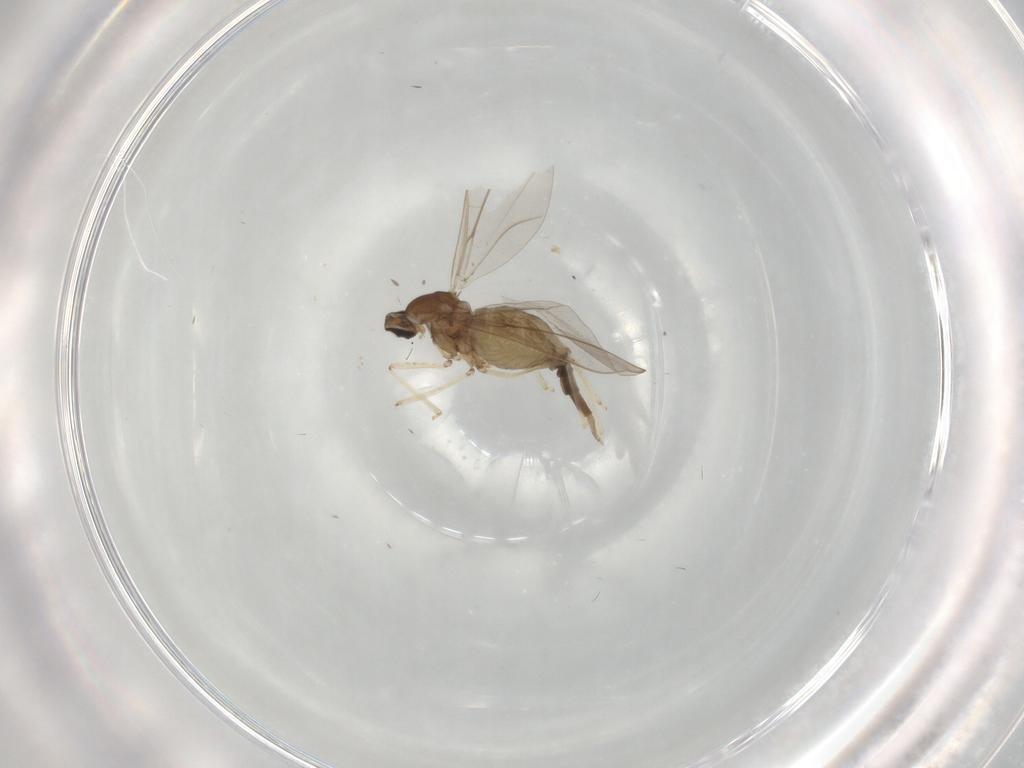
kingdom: Animalia
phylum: Arthropoda
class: Insecta
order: Diptera
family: Cecidomyiidae
